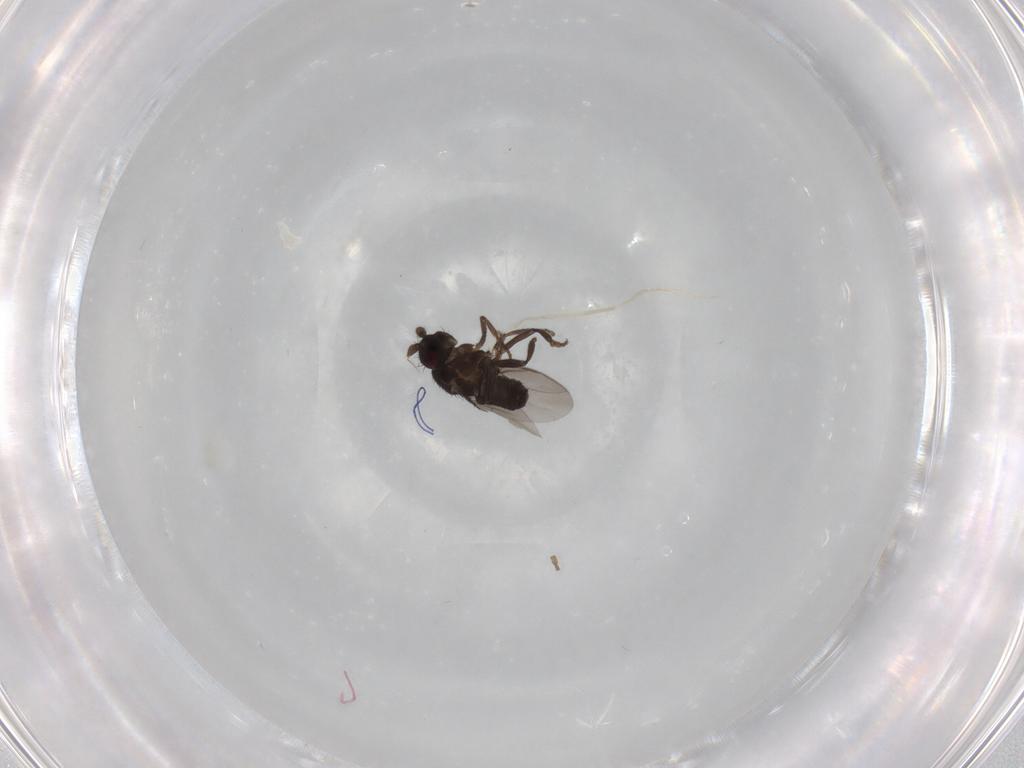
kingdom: Animalia
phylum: Arthropoda
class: Insecta
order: Diptera
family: Sphaeroceridae
